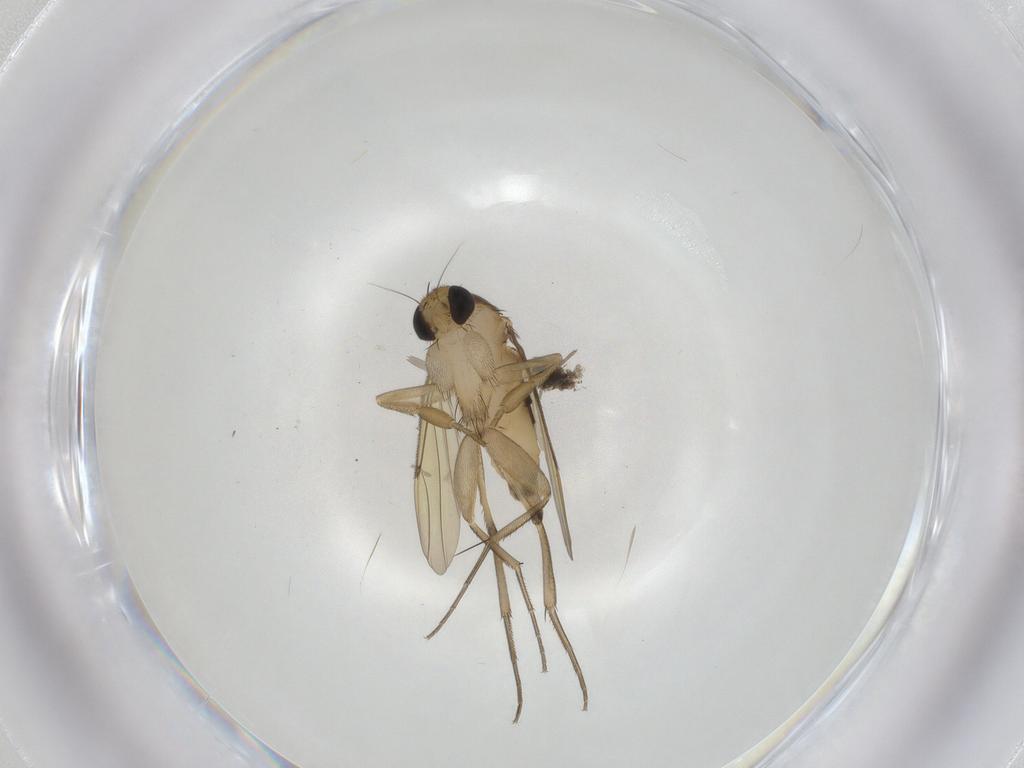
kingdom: Animalia
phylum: Arthropoda
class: Insecta
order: Diptera
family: Phoridae
